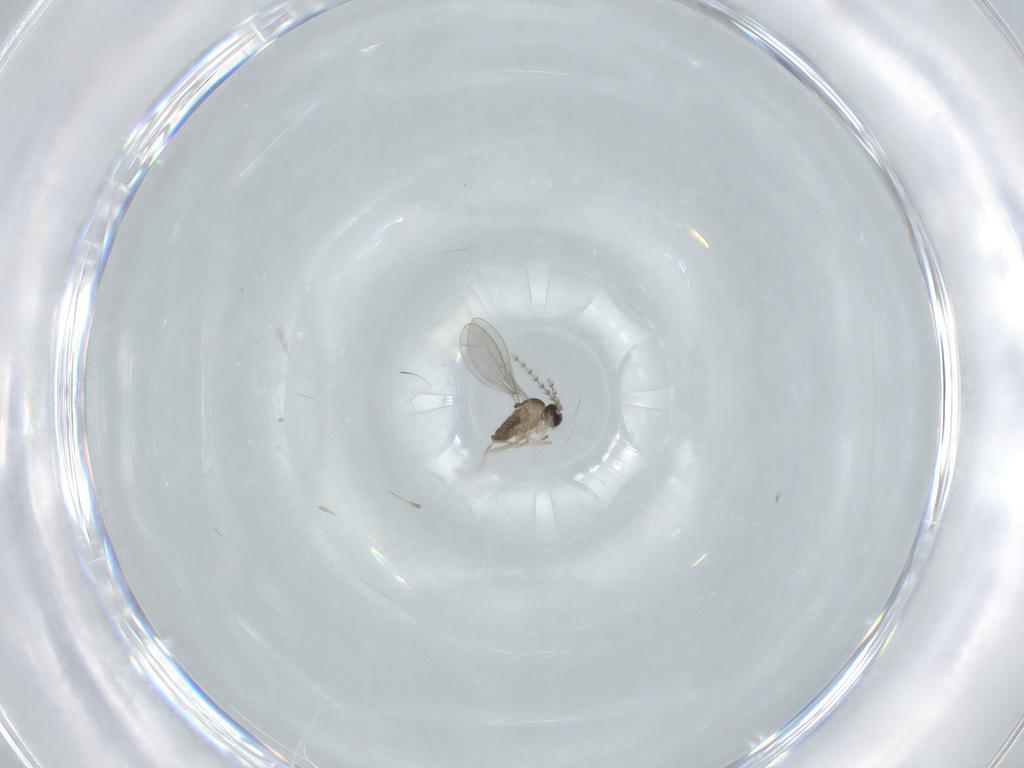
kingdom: Animalia
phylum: Arthropoda
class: Insecta
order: Diptera
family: Cecidomyiidae
